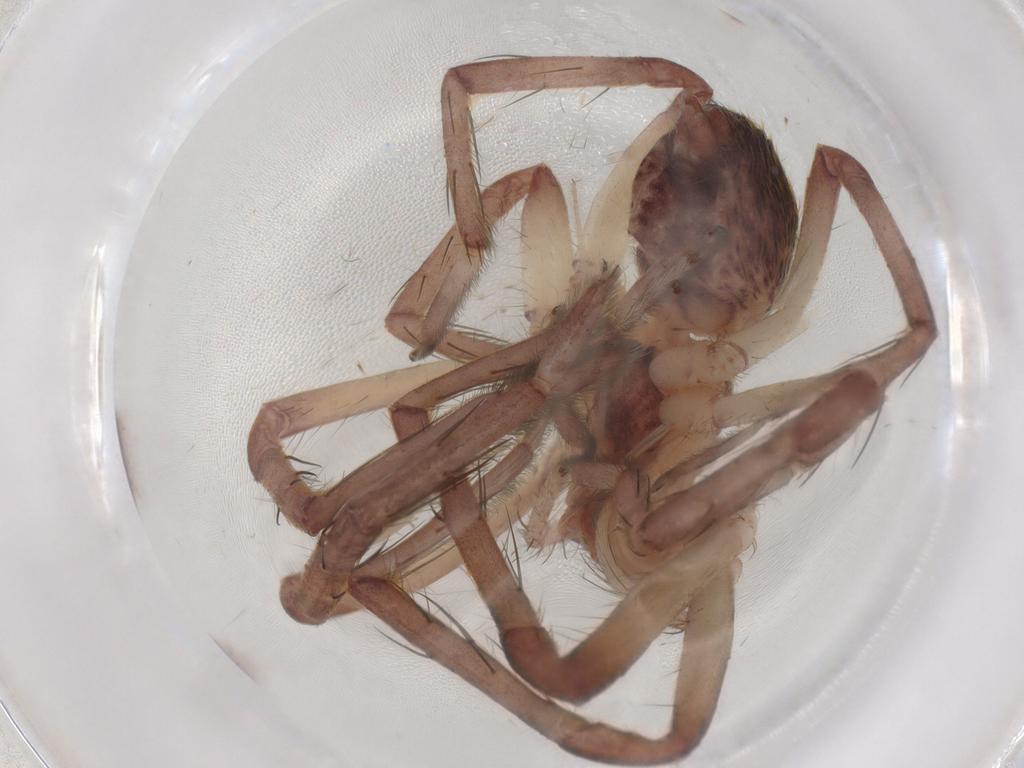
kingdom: Animalia
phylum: Arthropoda
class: Arachnida
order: Araneae
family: Sparassidae
